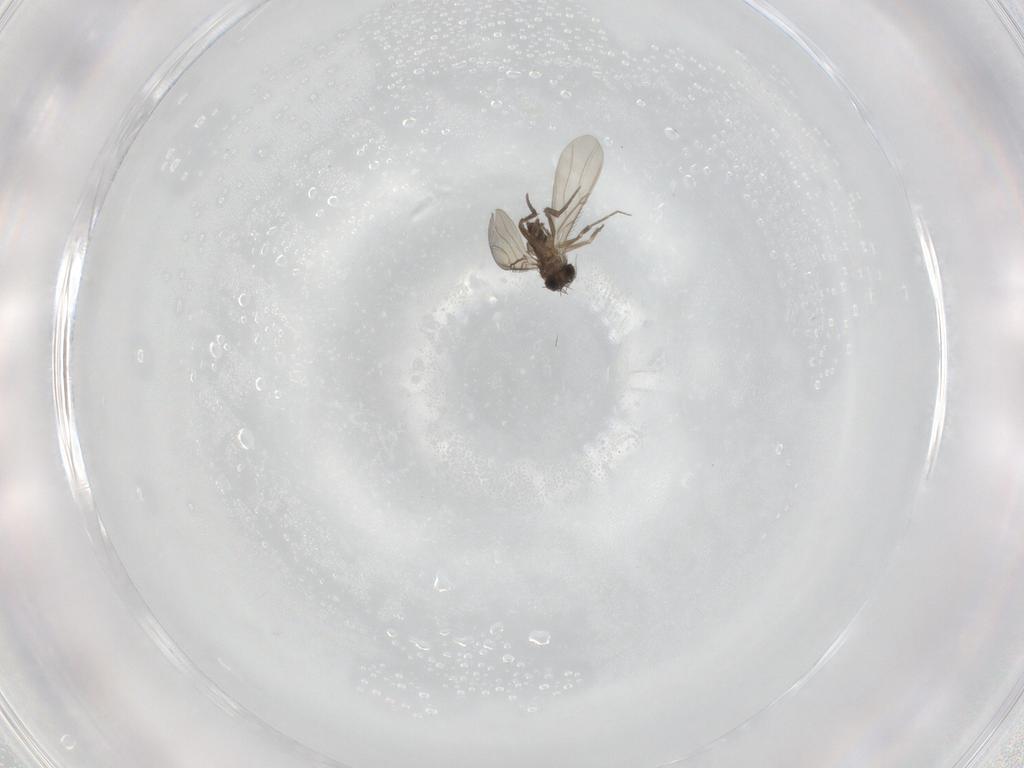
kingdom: Animalia
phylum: Arthropoda
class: Insecta
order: Diptera
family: Phoridae
